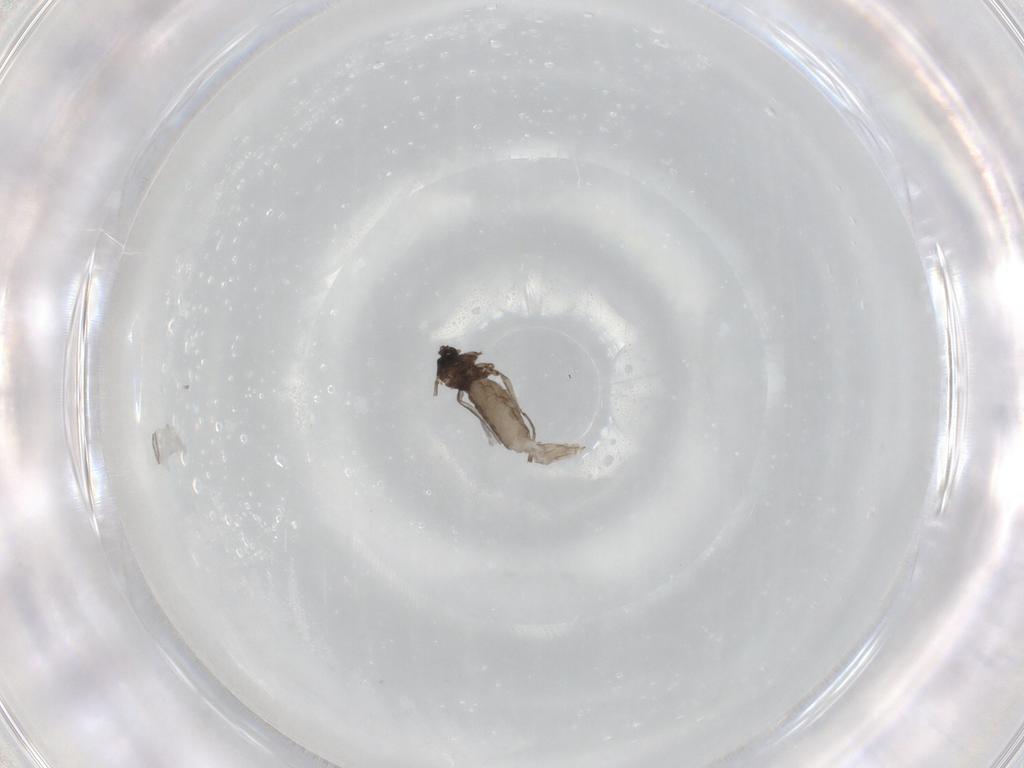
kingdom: Animalia
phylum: Arthropoda
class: Insecta
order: Diptera
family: Sciaridae
